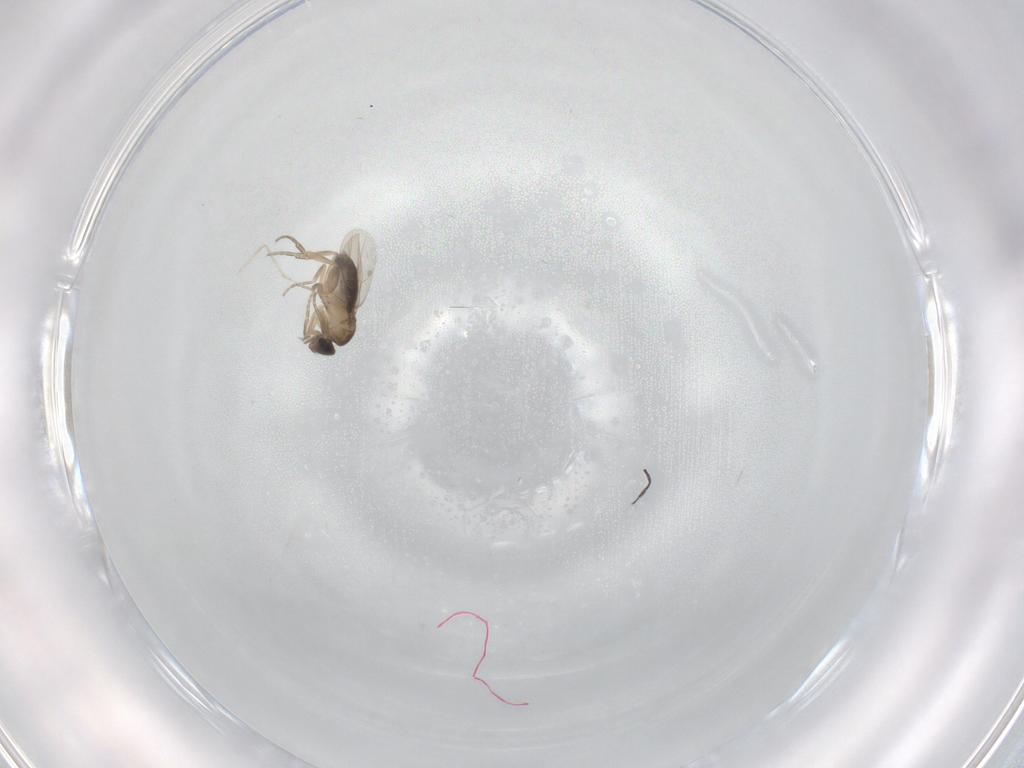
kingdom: Animalia
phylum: Arthropoda
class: Insecta
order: Diptera
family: Phoridae
